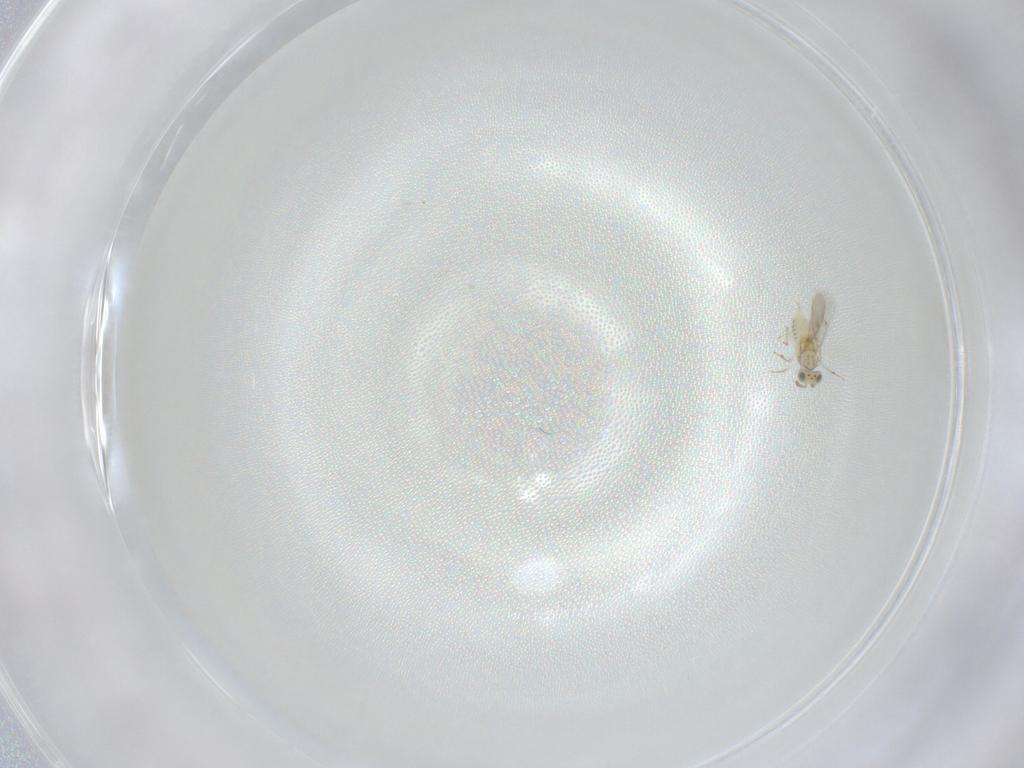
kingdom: Animalia
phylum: Arthropoda
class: Insecta
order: Hymenoptera
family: Aphelinidae
